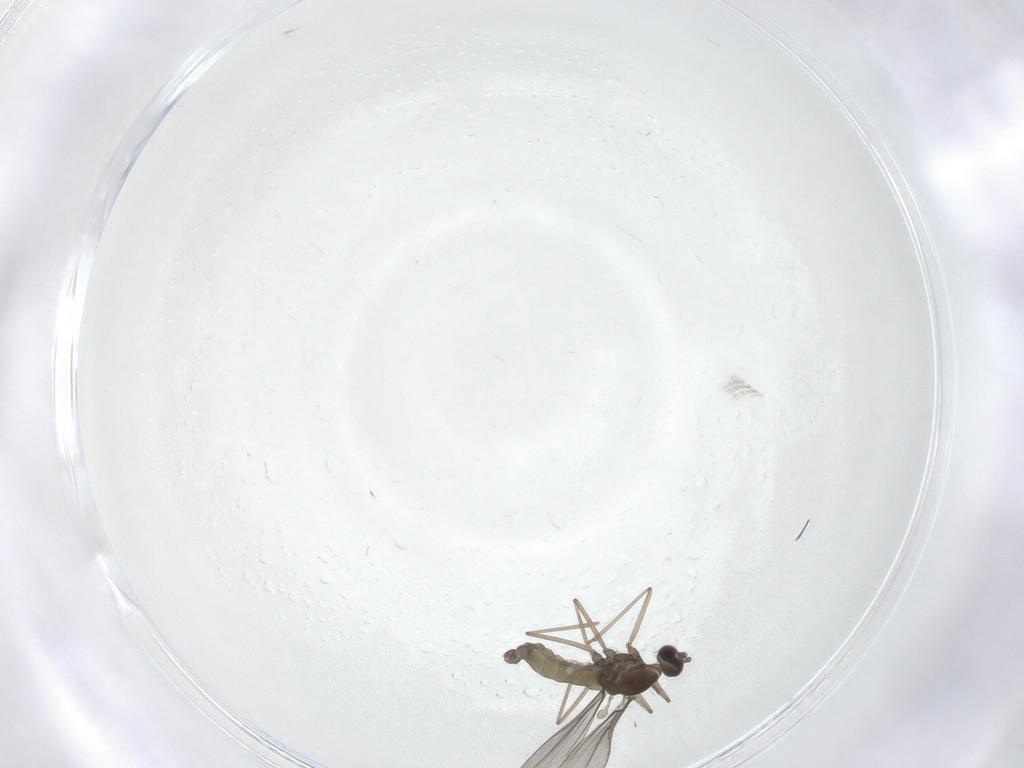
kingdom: Animalia
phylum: Arthropoda
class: Insecta
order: Diptera
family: Cecidomyiidae
